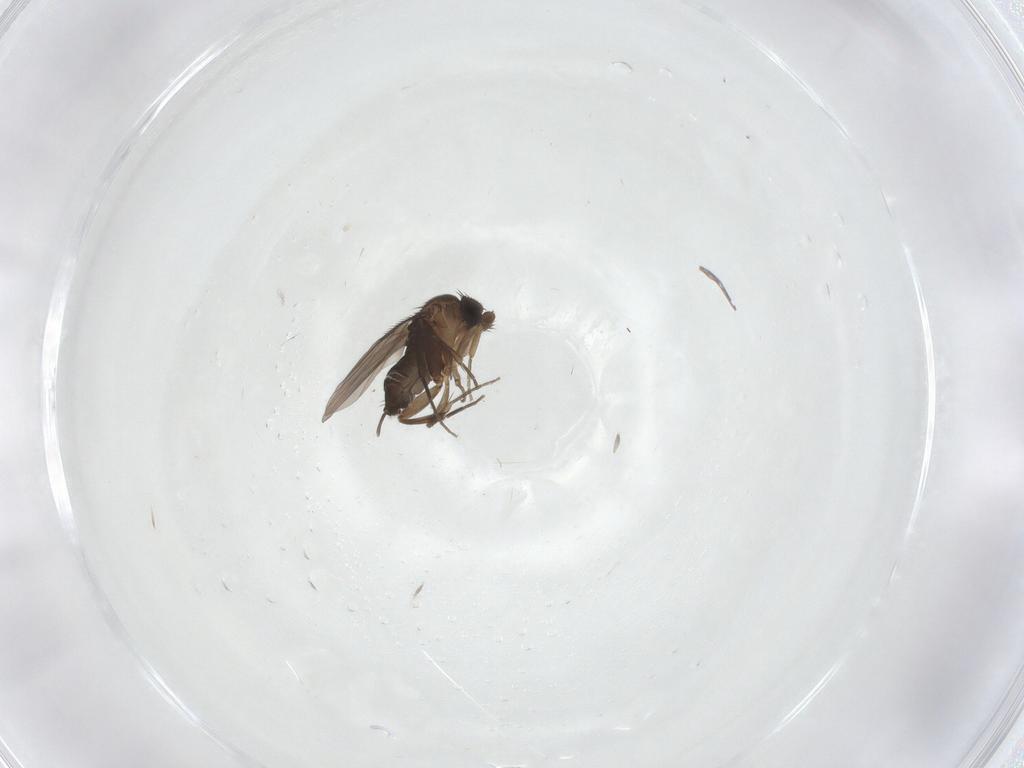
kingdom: Animalia
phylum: Arthropoda
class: Insecta
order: Diptera
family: Phoridae
